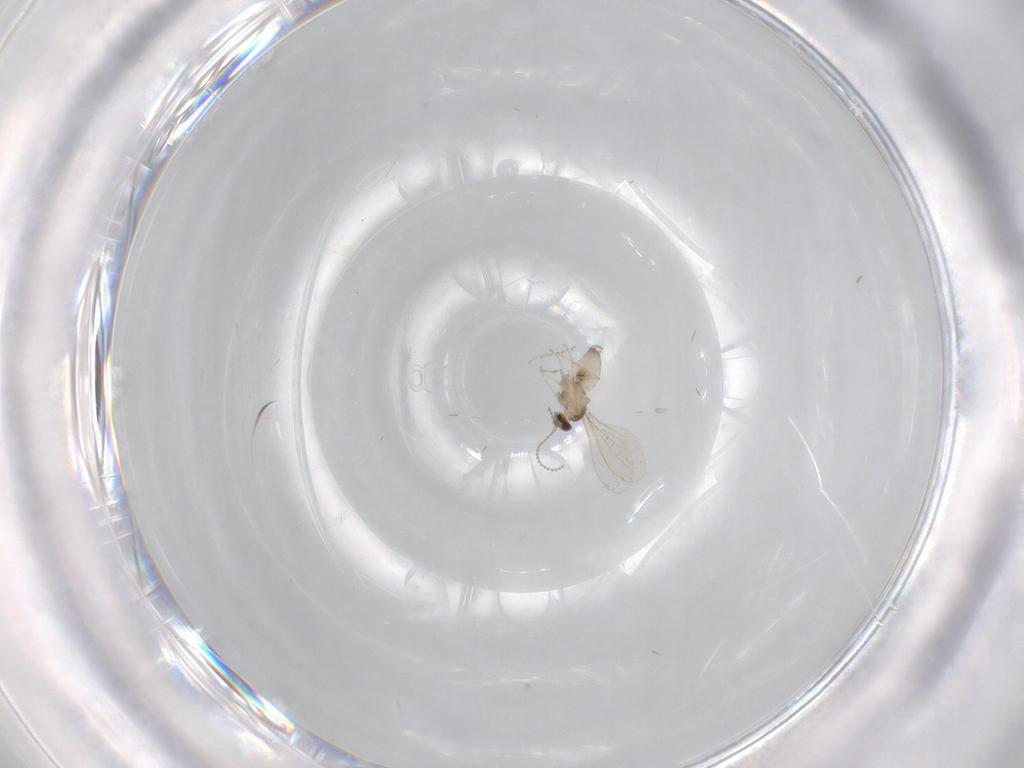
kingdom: Animalia
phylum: Arthropoda
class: Insecta
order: Diptera
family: Cecidomyiidae
